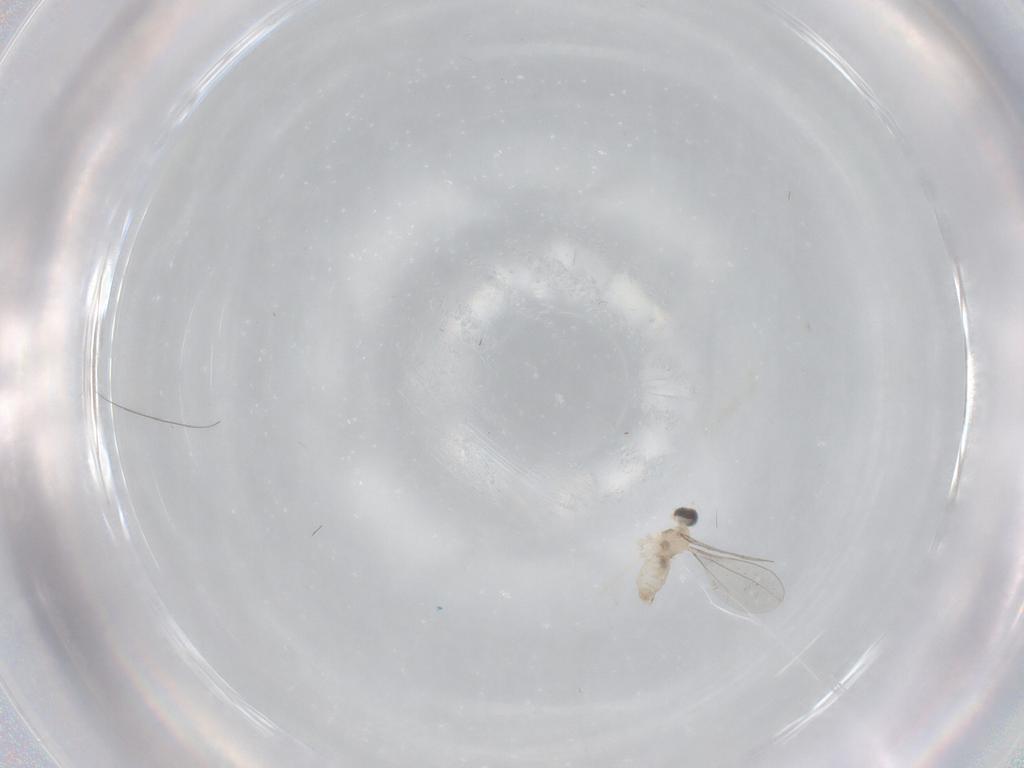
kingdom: Animalia
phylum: Arthropoda
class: Insecta
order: Diptera
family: Cecidomyiidae
